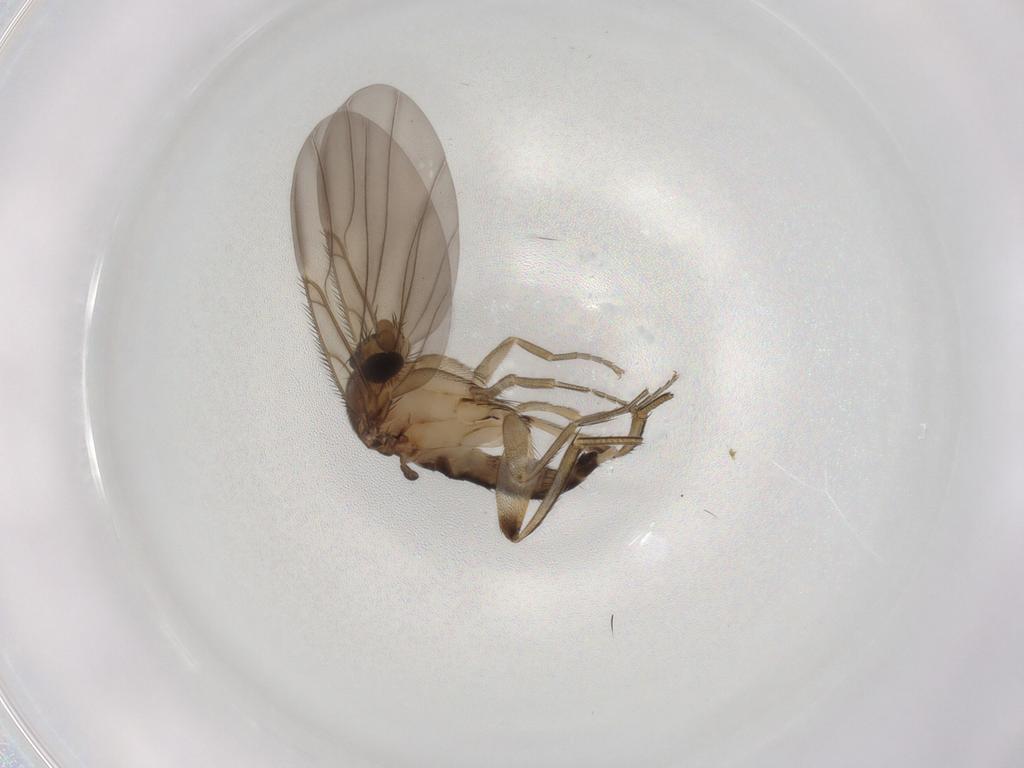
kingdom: Animalia
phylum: Arthropoda
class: Insecta
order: Diptera
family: Phoridae
